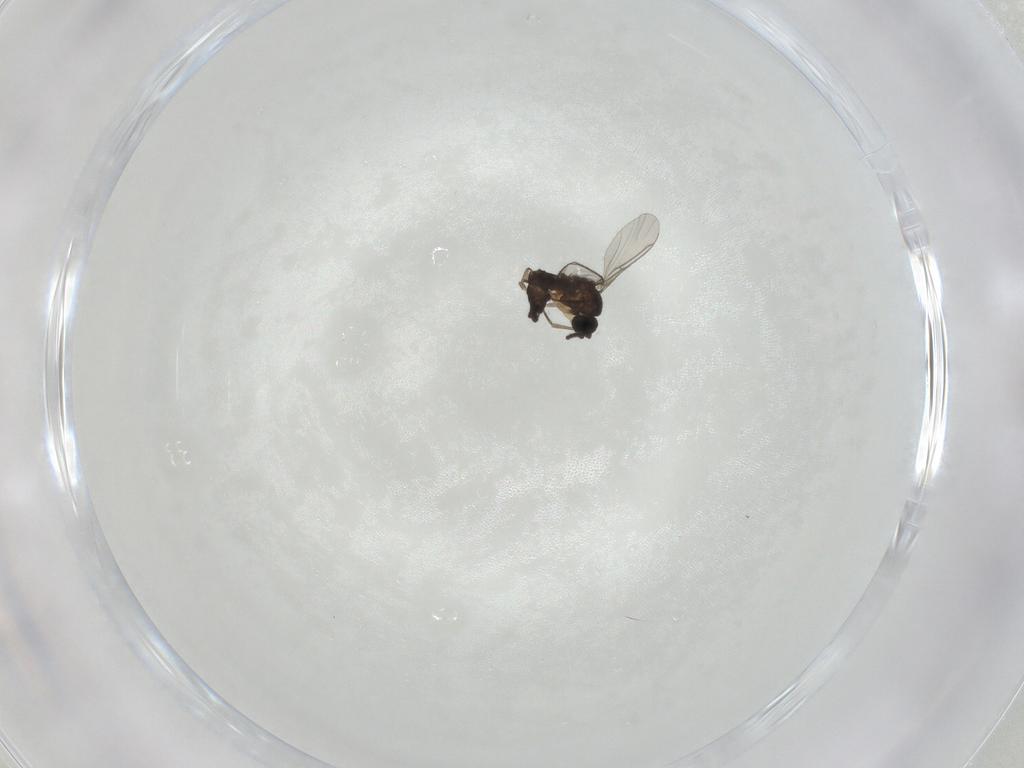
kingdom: Animalia
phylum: Arthropoda
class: Insecta
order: Diptera
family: Sciaridae
